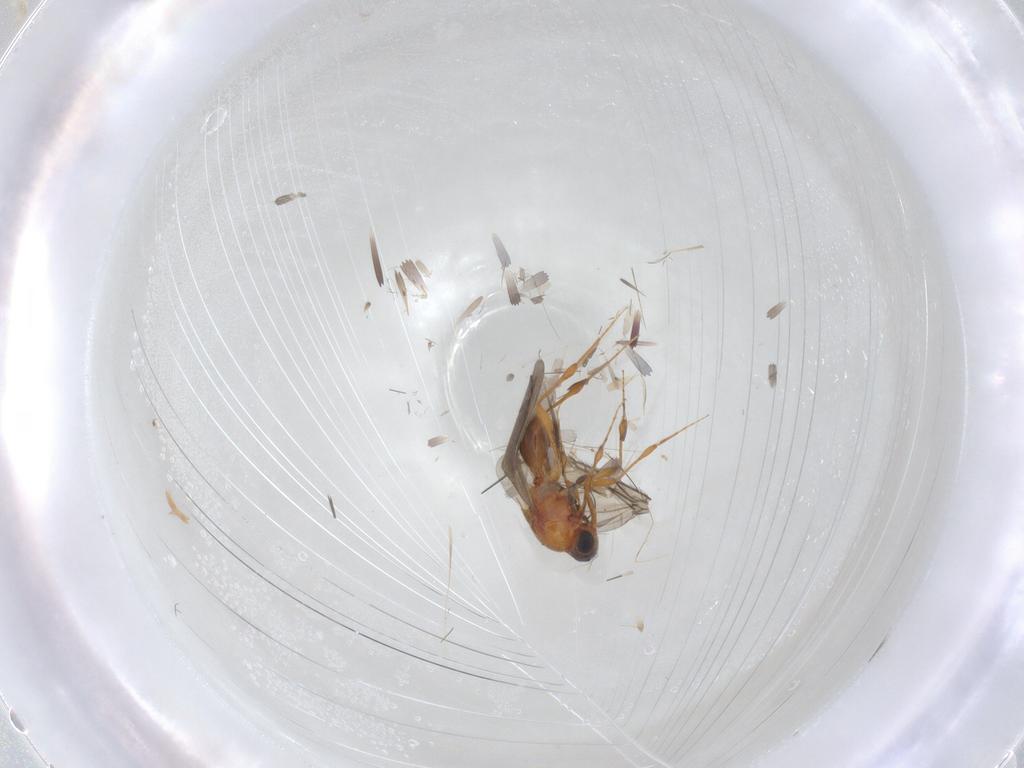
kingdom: Animalia
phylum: Arthropoda
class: Insecta
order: Hymenoptera
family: Platygastridae
